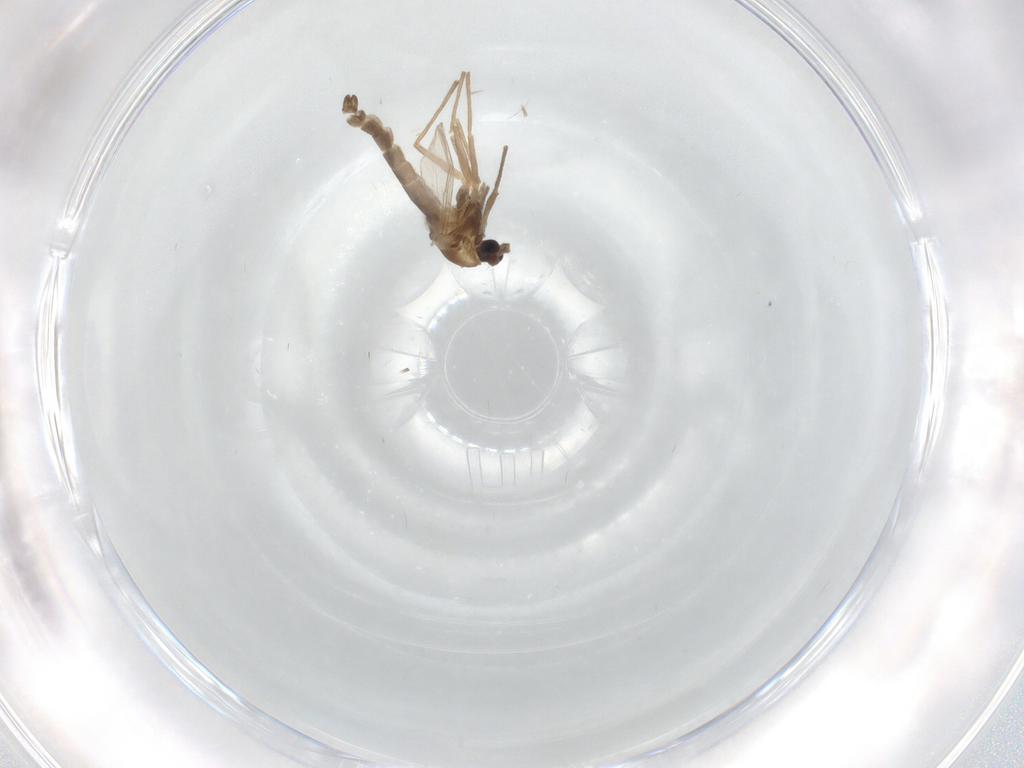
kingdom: Animalia
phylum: Arthropoda
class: Insecta
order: Diptera
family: Chironomidae
